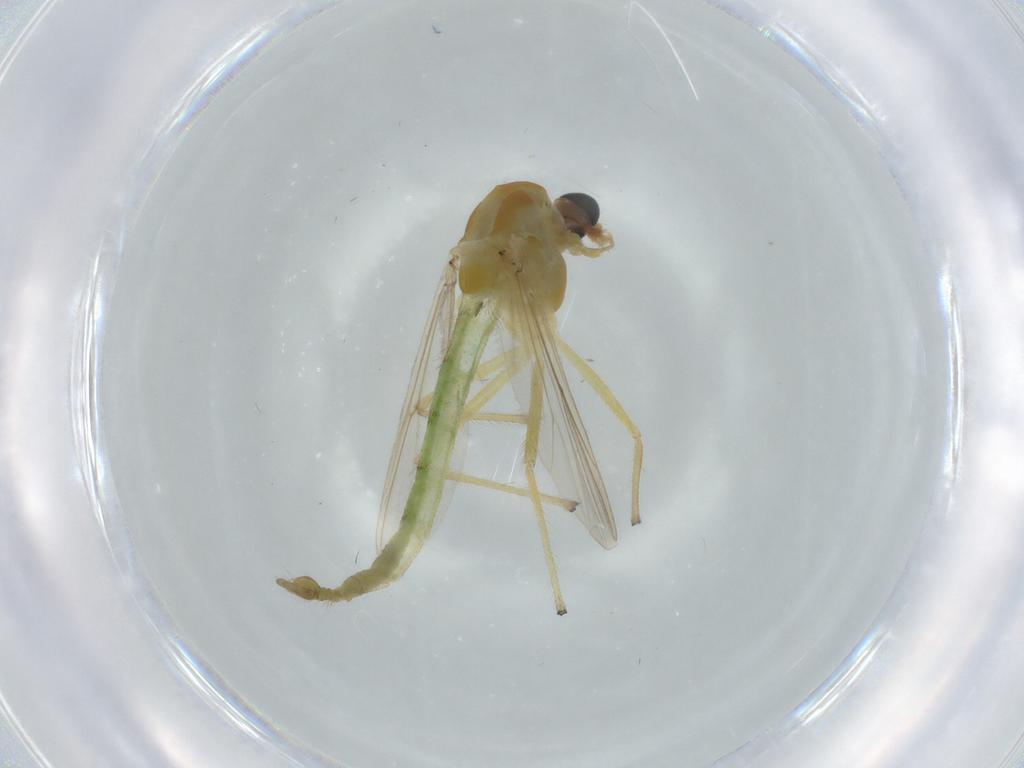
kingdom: Animalia
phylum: Arthropoda
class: Insecta
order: Diptera
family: Chironomidae
